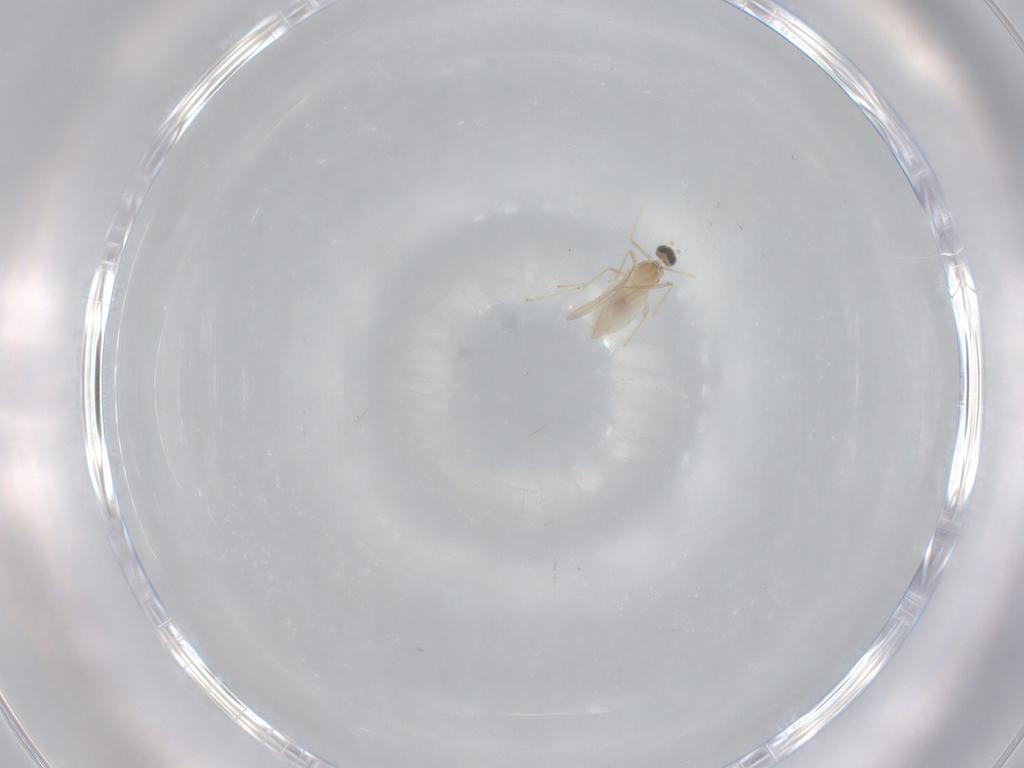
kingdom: Animalia
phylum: Arthropoda
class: Insecta
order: Diptera
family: Cecidomyiidae
